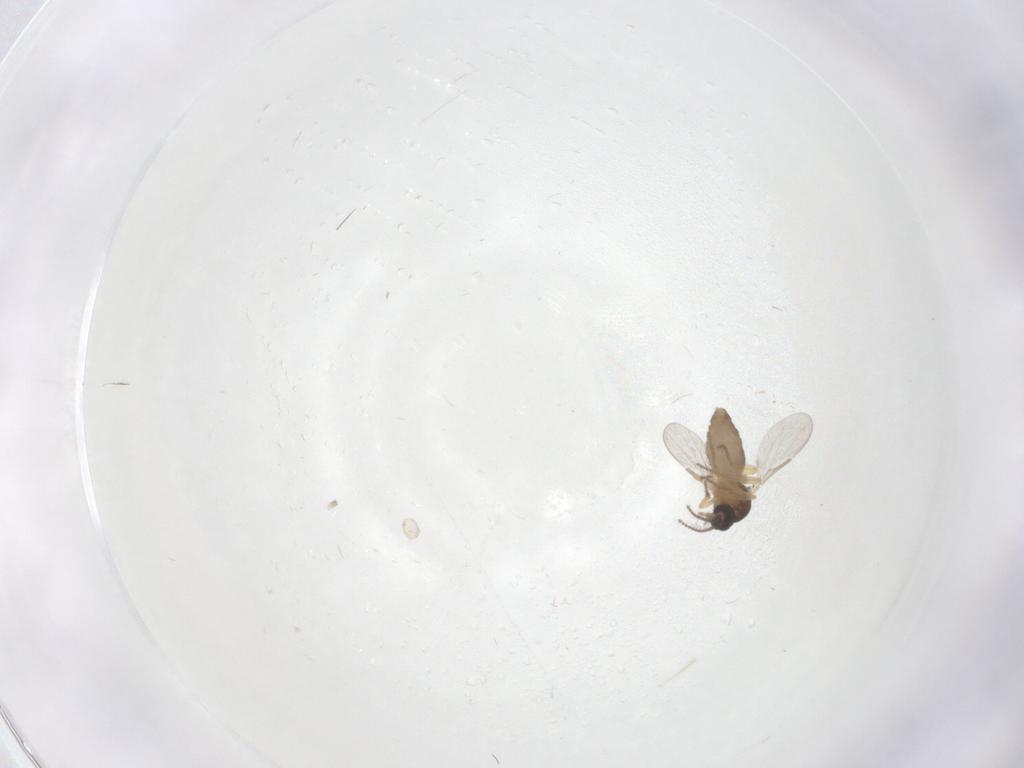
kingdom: Animalia
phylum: Arthropoda
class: Insecta
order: Diptera
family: Ceratopogonidae
